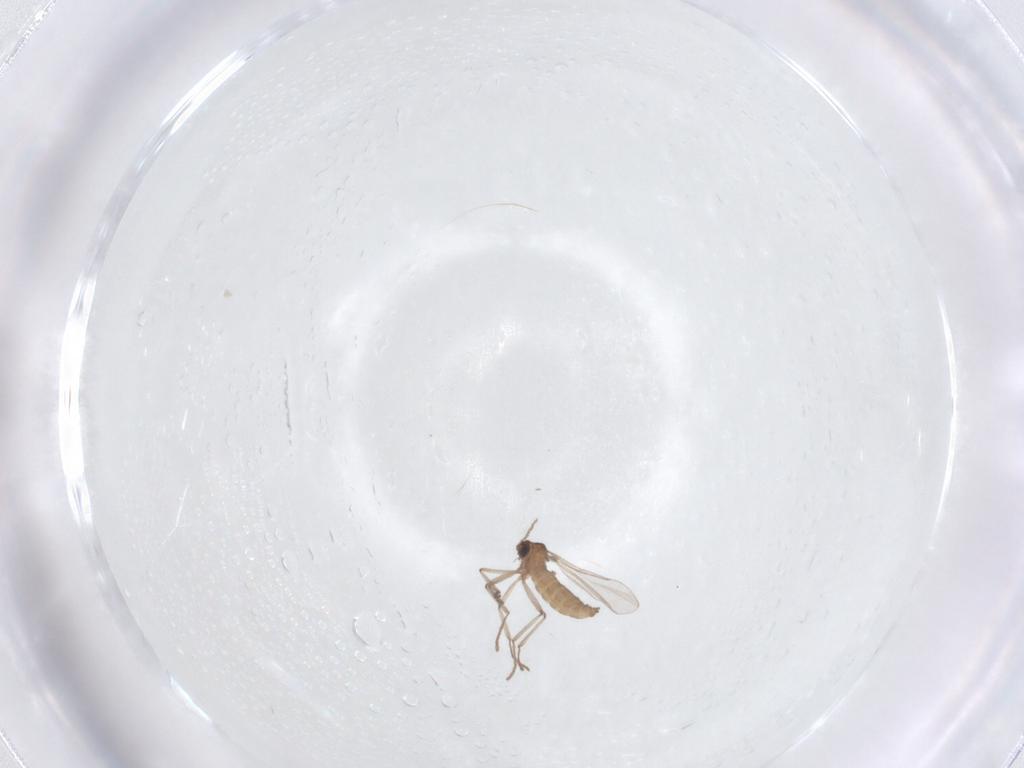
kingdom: Animalia
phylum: Arthropoda
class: Insecta
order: Diptera
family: Cecidomyiidae
